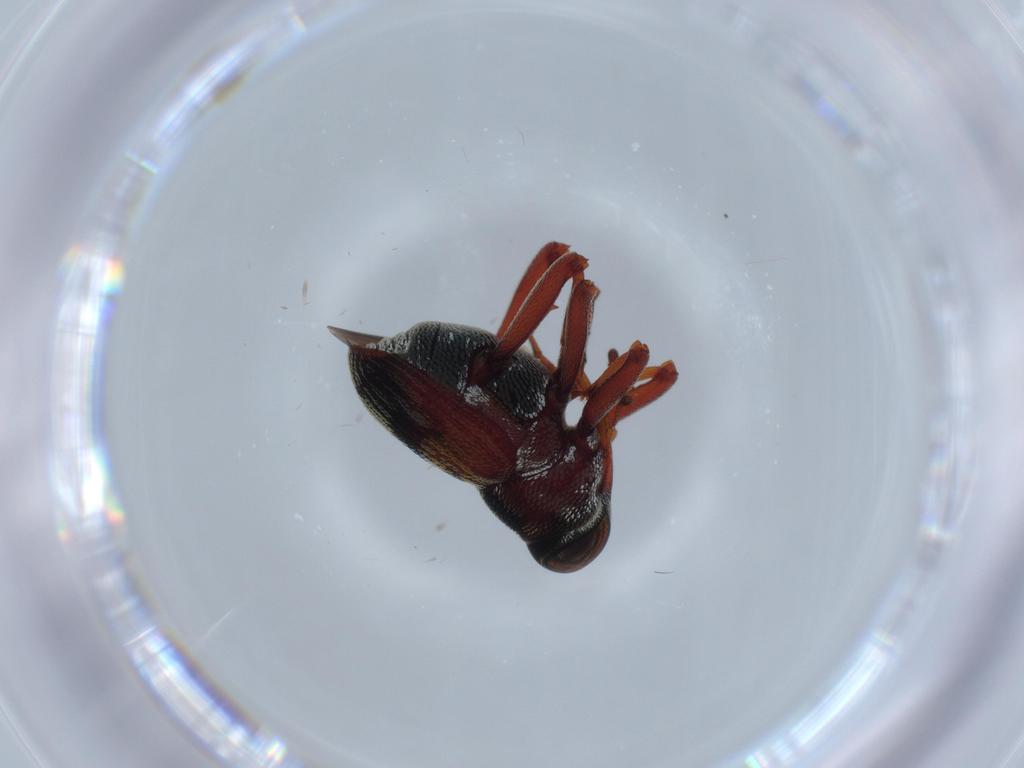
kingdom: Animalia
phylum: Arthropoda
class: Insecta
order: Coleoptera
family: Curculionidae
